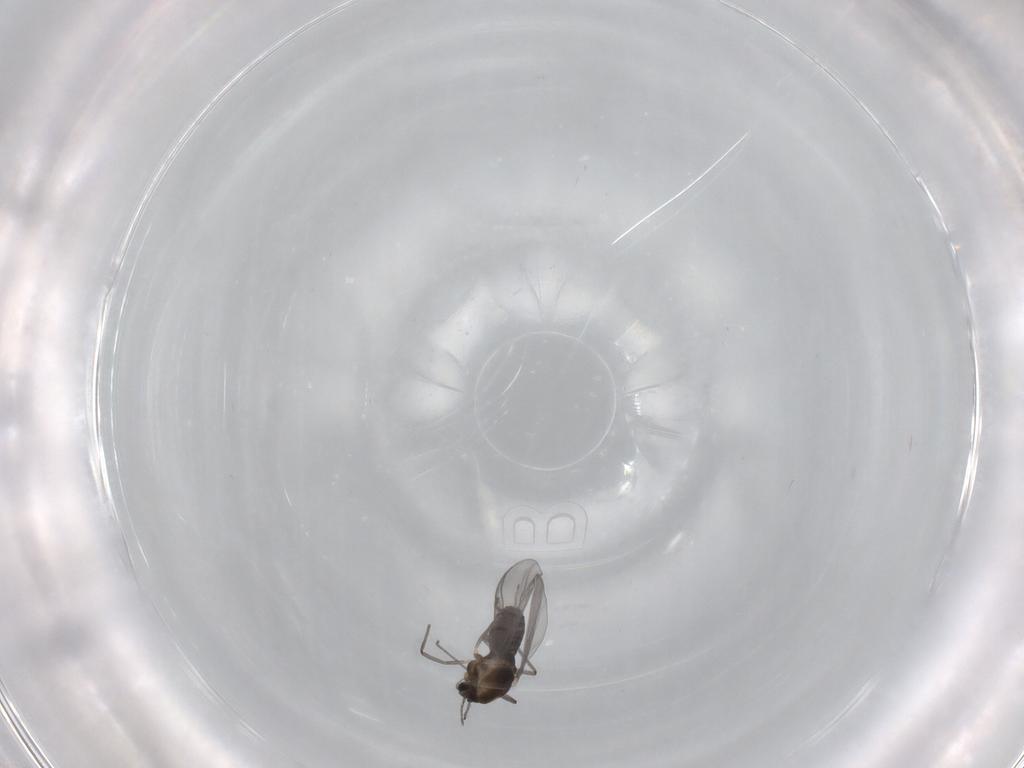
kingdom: Animalia
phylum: Arthropoda
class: Insecta
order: Diptera
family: Chironomidae
